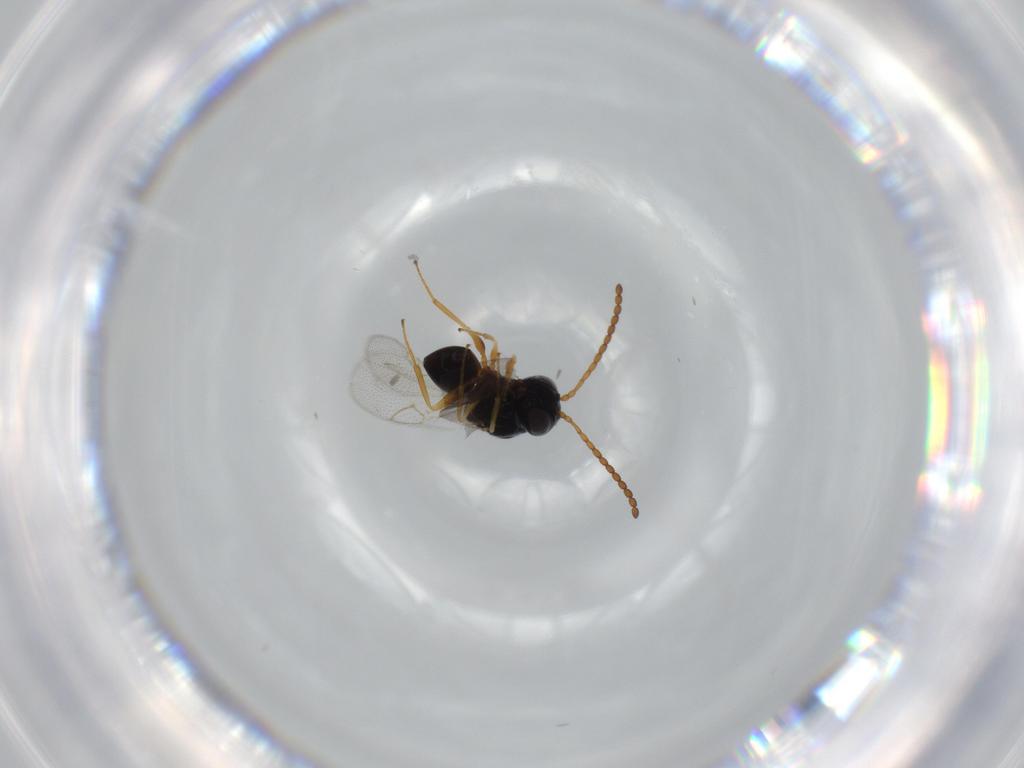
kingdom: Animalia
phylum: Arthropoda
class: Insecta
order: Hymenoptera
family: Figitidae
